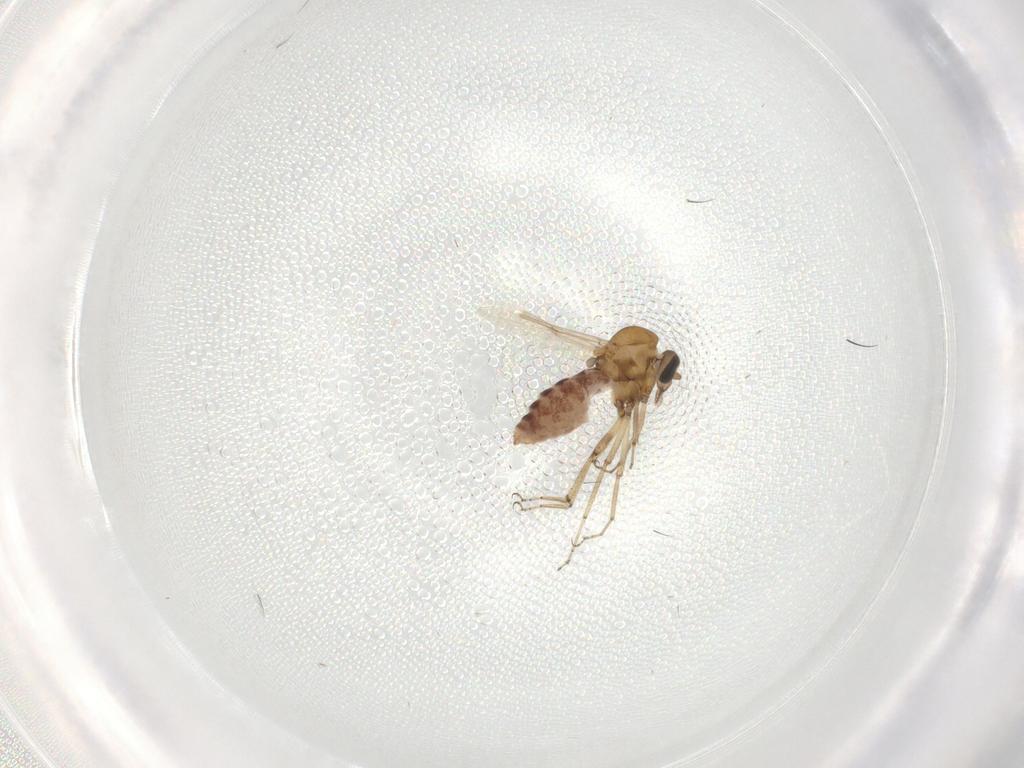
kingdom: Animalia
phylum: Arthropoda
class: Insecta
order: Diptera
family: Ceratopogonidae
